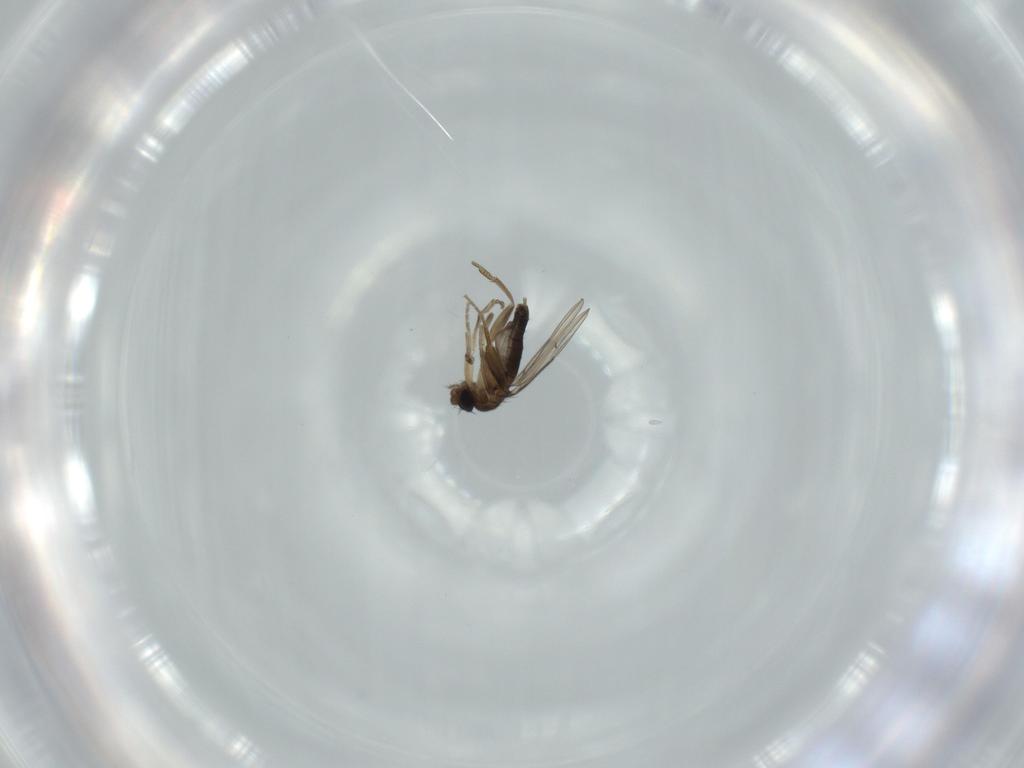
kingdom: Animalia
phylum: Arthropoda
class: Insecta
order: Diptera
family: Phoridae
